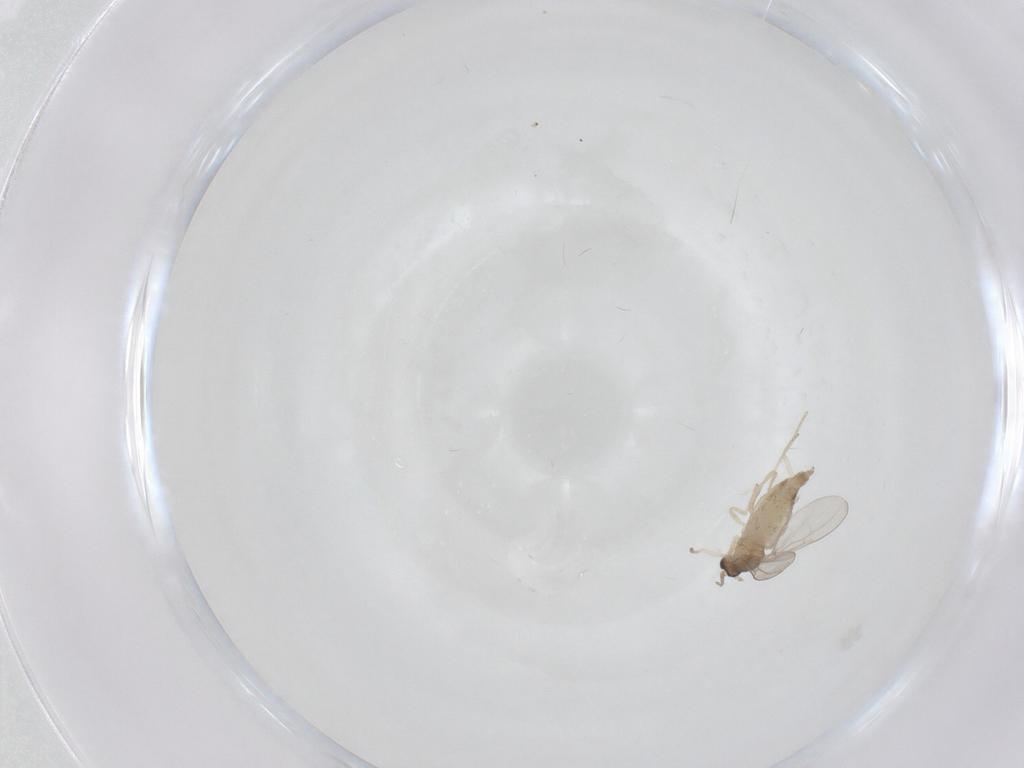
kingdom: Animalia
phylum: Arthropoda
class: Insecta
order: Diptera
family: Cecidomyiidae
